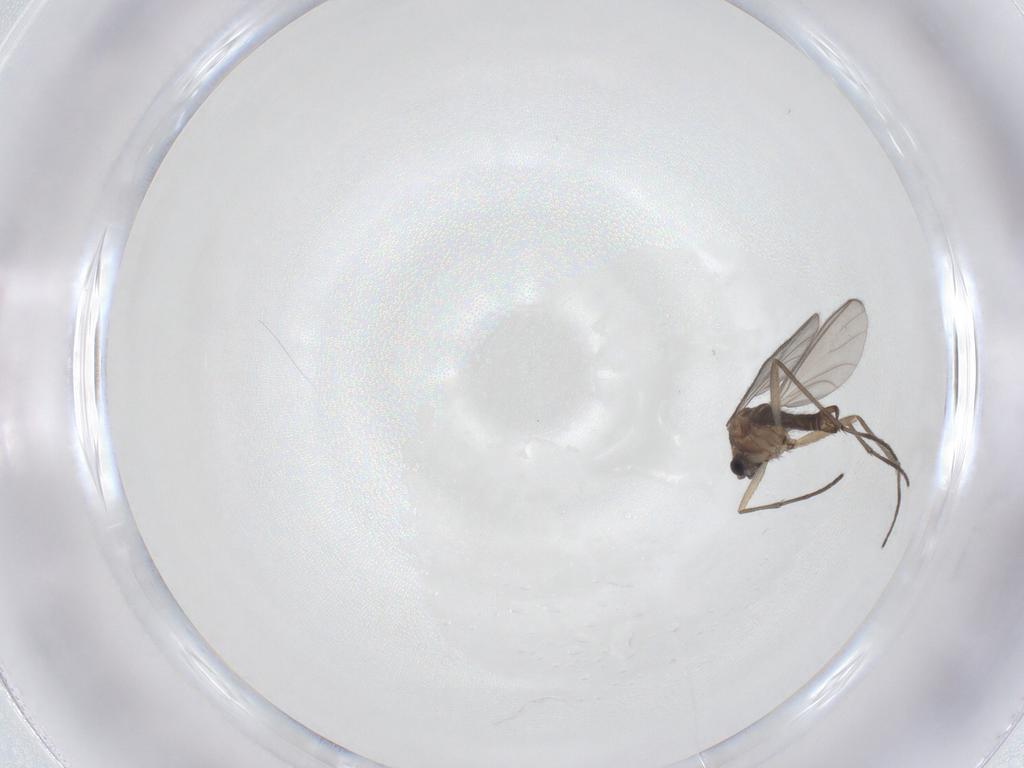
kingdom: Animalia
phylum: Arthropoda
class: Insecta
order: Diptera
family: Sciaridae
